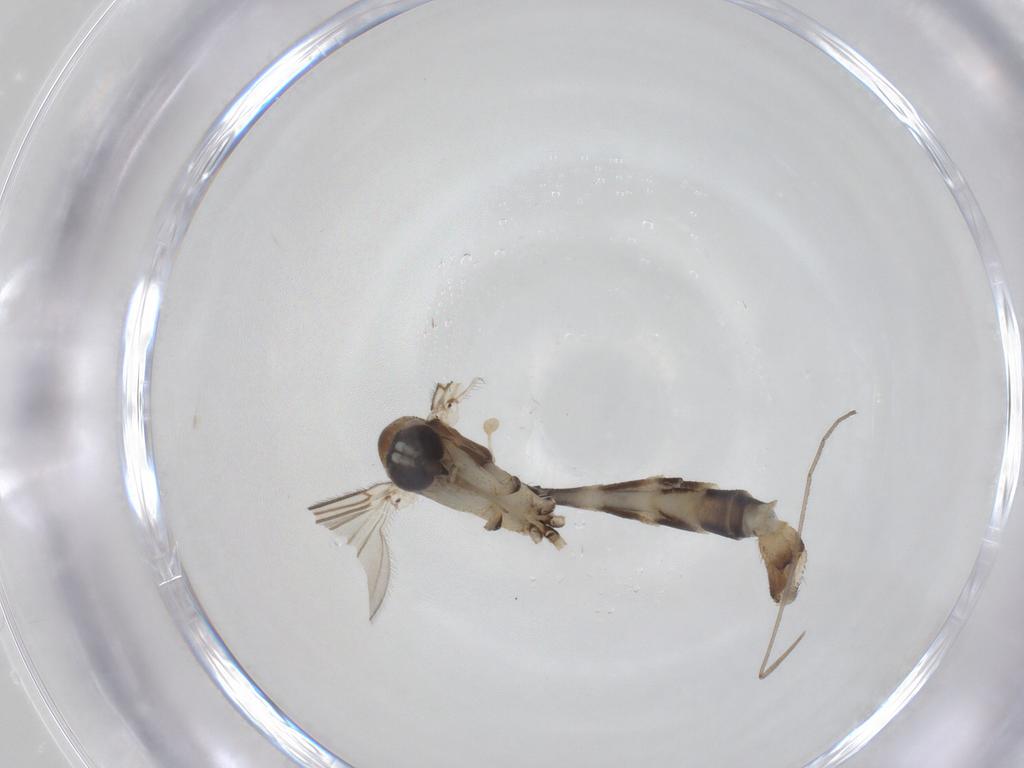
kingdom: Animalia
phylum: Arthropoda
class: Insecta
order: Diptera
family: Mycetophilidae
